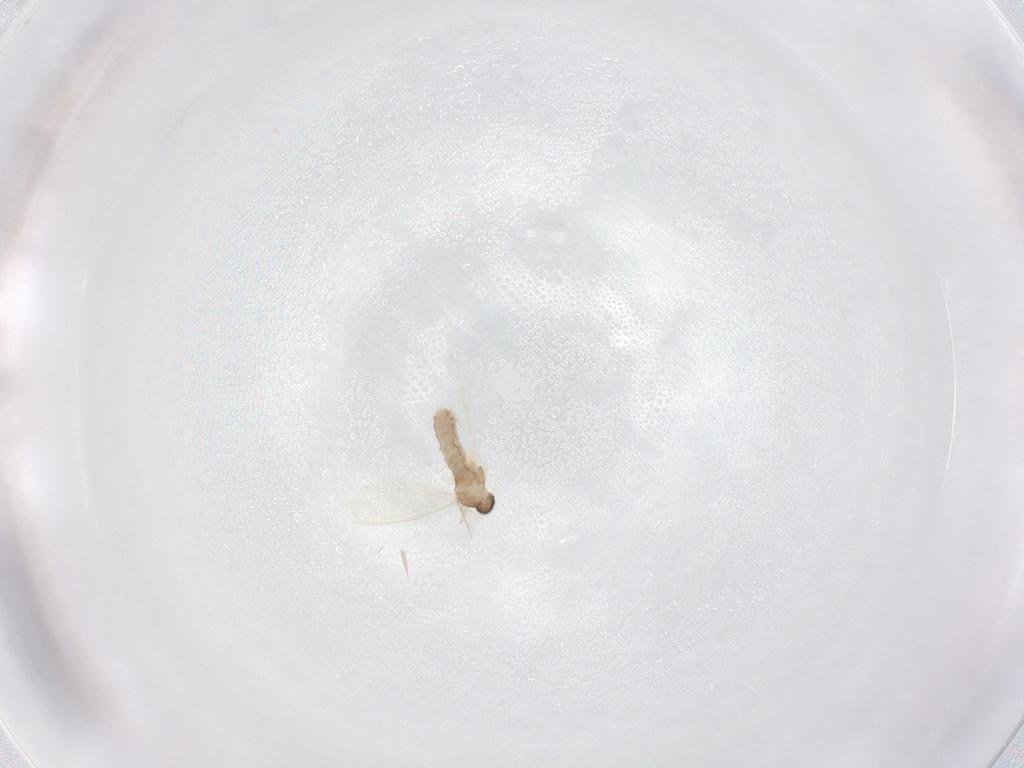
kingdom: Animalia
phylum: Arthropoda
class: Insecta
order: Diptera
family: Cecidomyiidae
